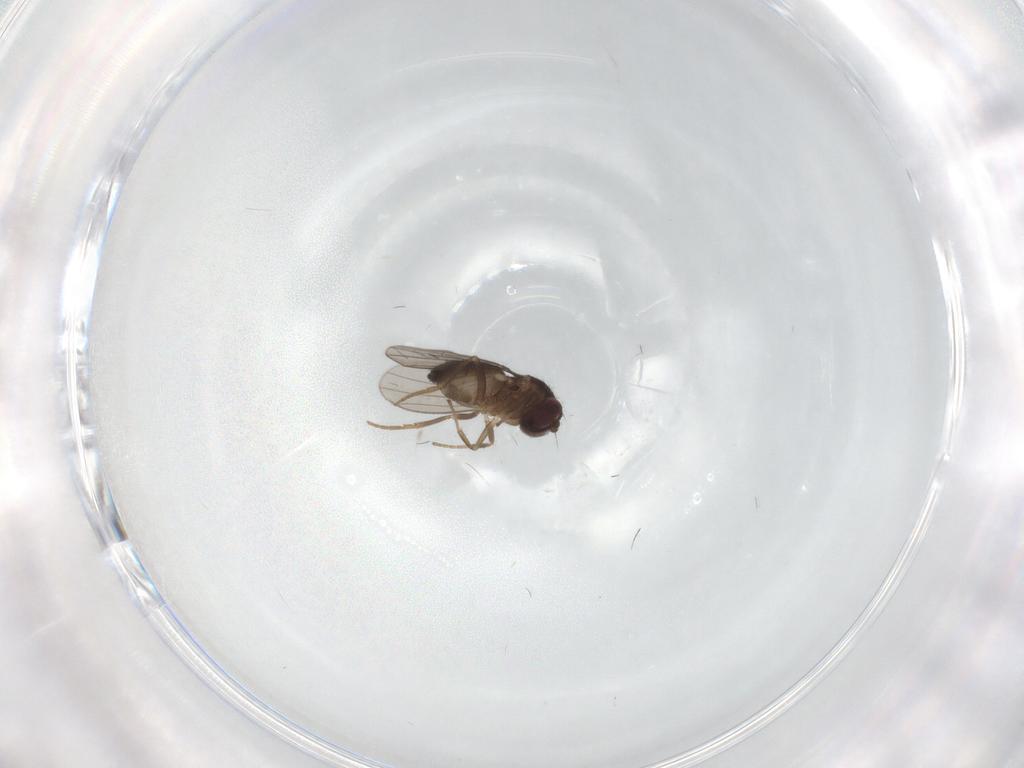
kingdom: Animalia
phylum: Arthropoda
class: Insecta
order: Diptera
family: Dolichopodidae
